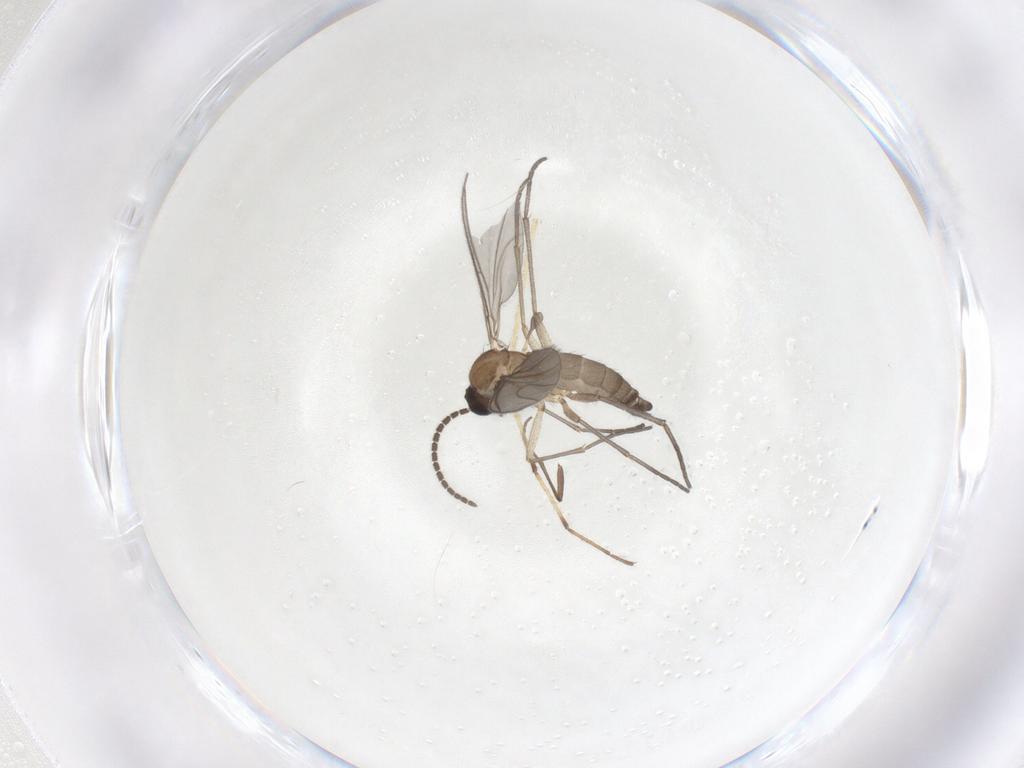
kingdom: Animalia
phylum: Arthropoda
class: Insecta
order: Diptera
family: Sciaridae
